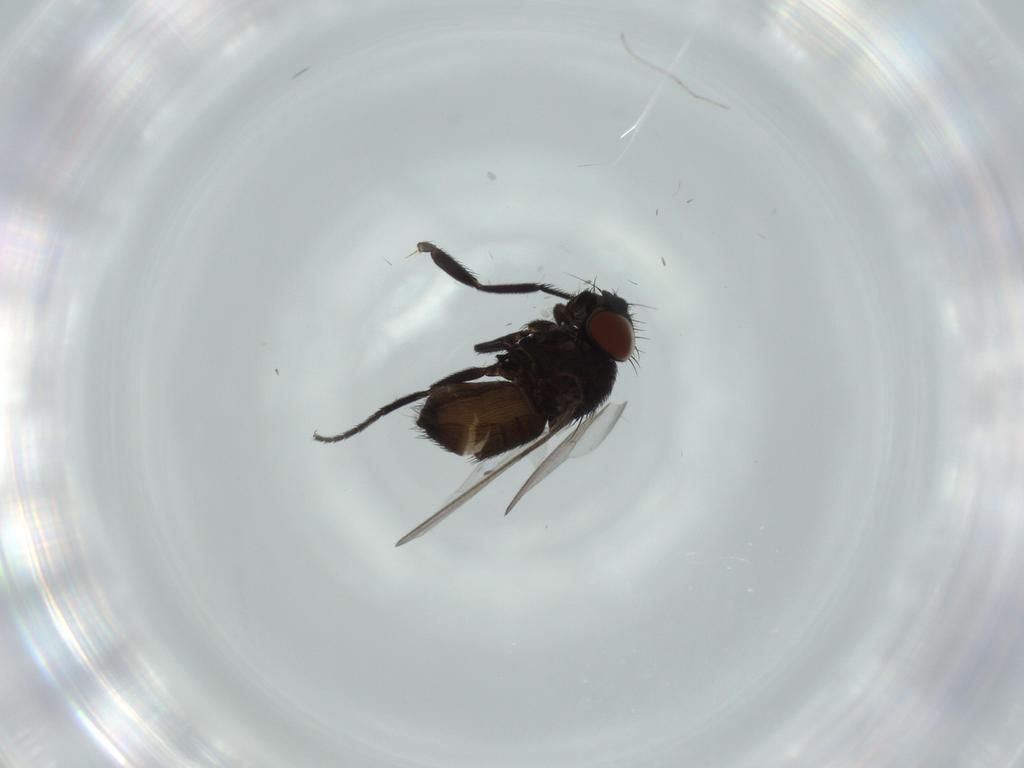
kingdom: Animalia
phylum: Arthropoda
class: Insecta
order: Diptera
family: Milichiidae
